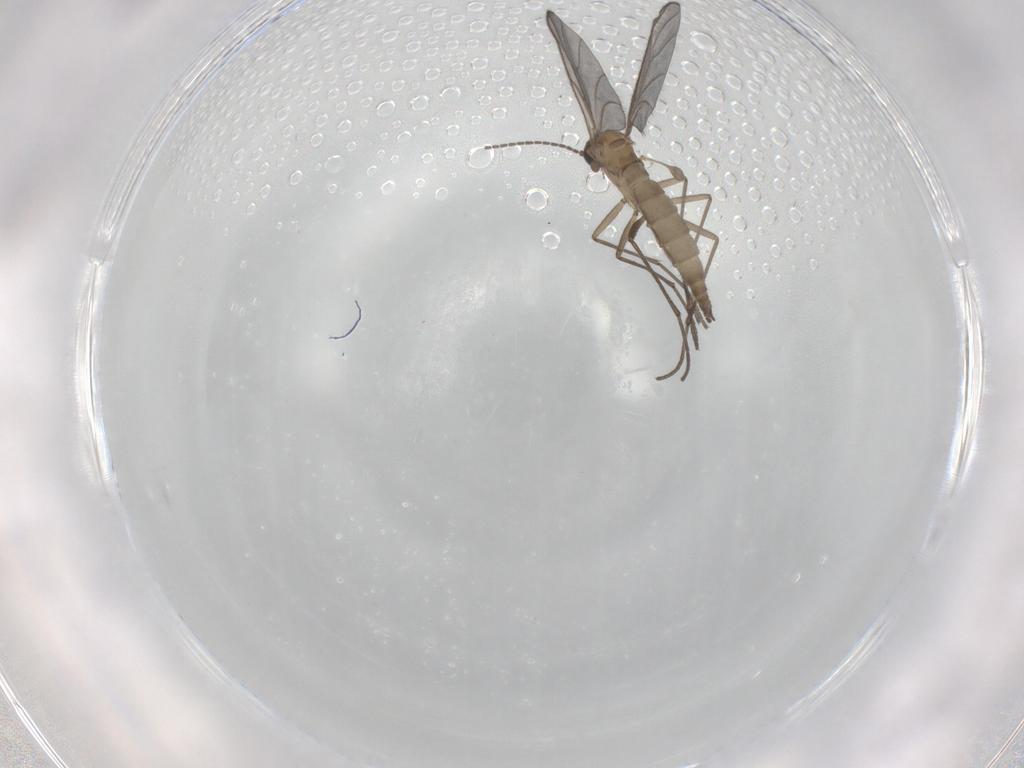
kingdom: Animalia
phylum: Arthropoda
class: Insecta
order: Diptera
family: Sciaridae
